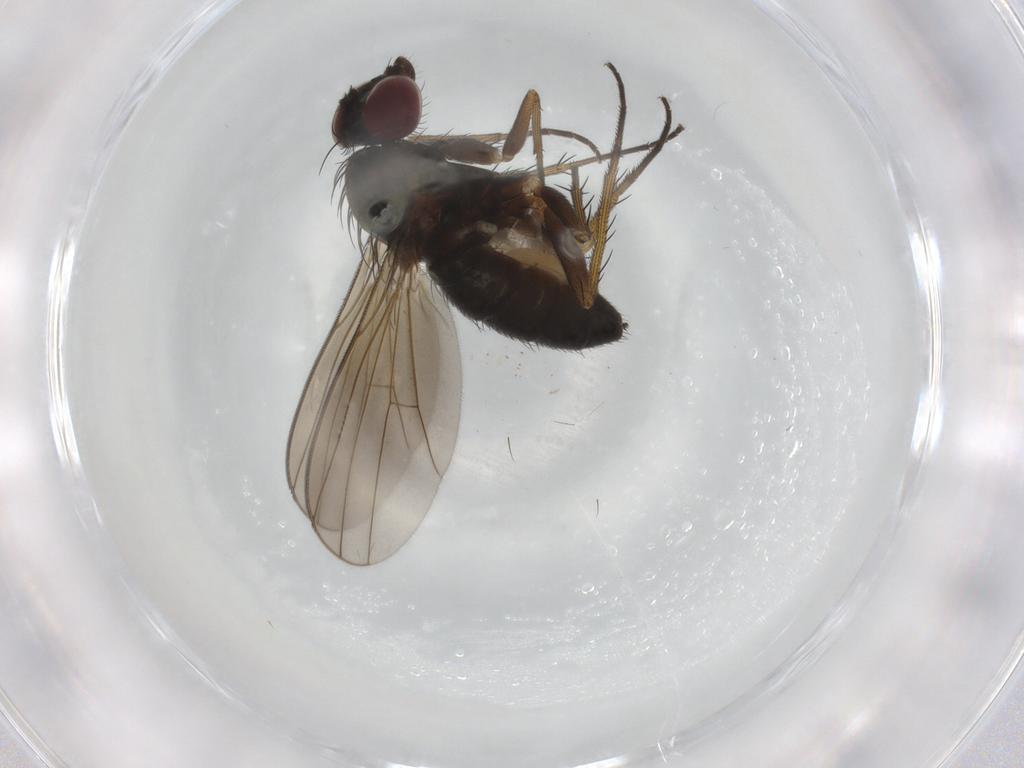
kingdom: Animalia
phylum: Arthropoda
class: Insecta
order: Diptera
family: Dolichopodidae
